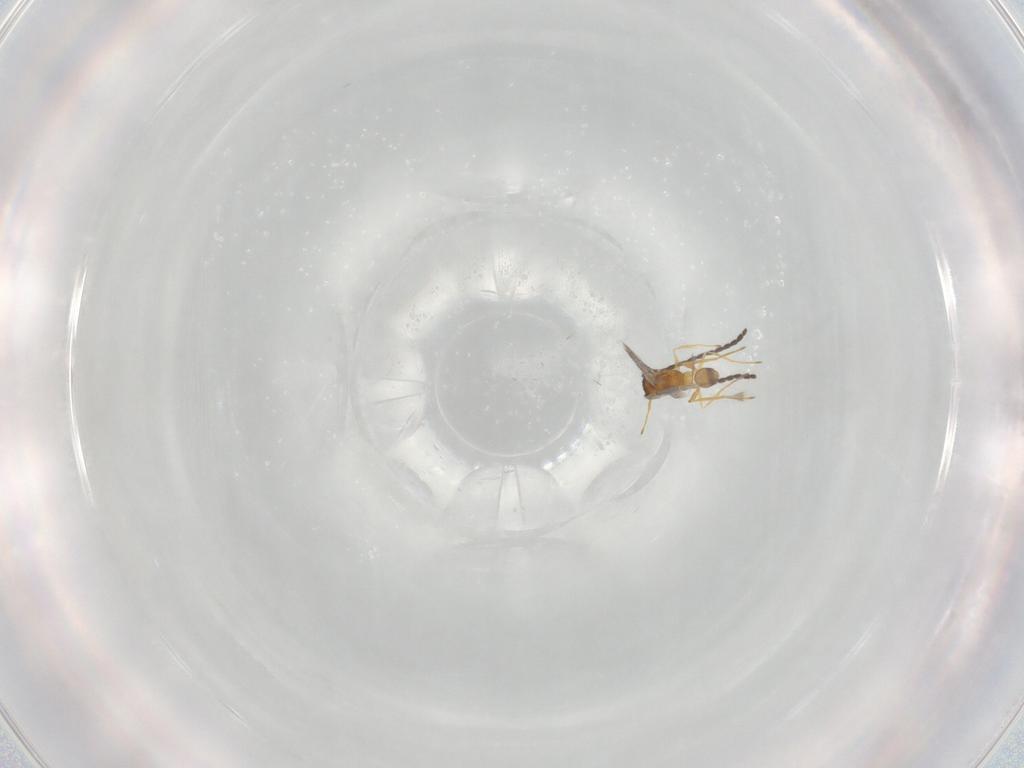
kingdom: Animalia
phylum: Arthropoda
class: Insecta
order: Hymenoptera
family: Mymaridae
